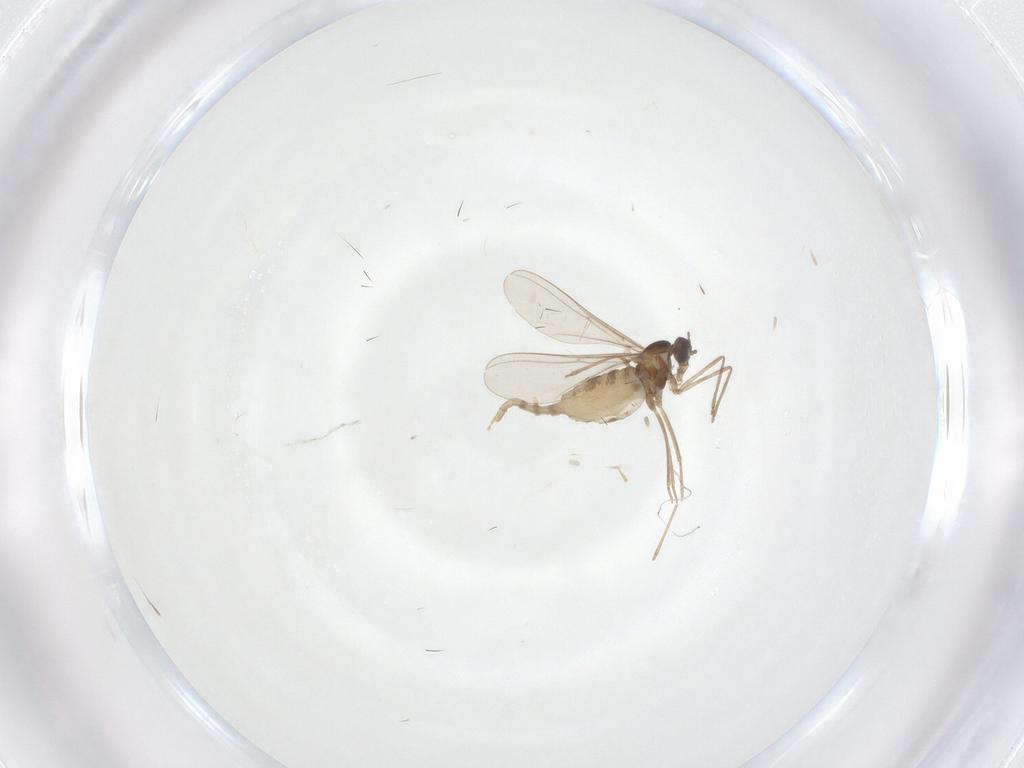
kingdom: Animalia
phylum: Arthropoda
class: Insecta
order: Diptera
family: Cecidomyiidae
